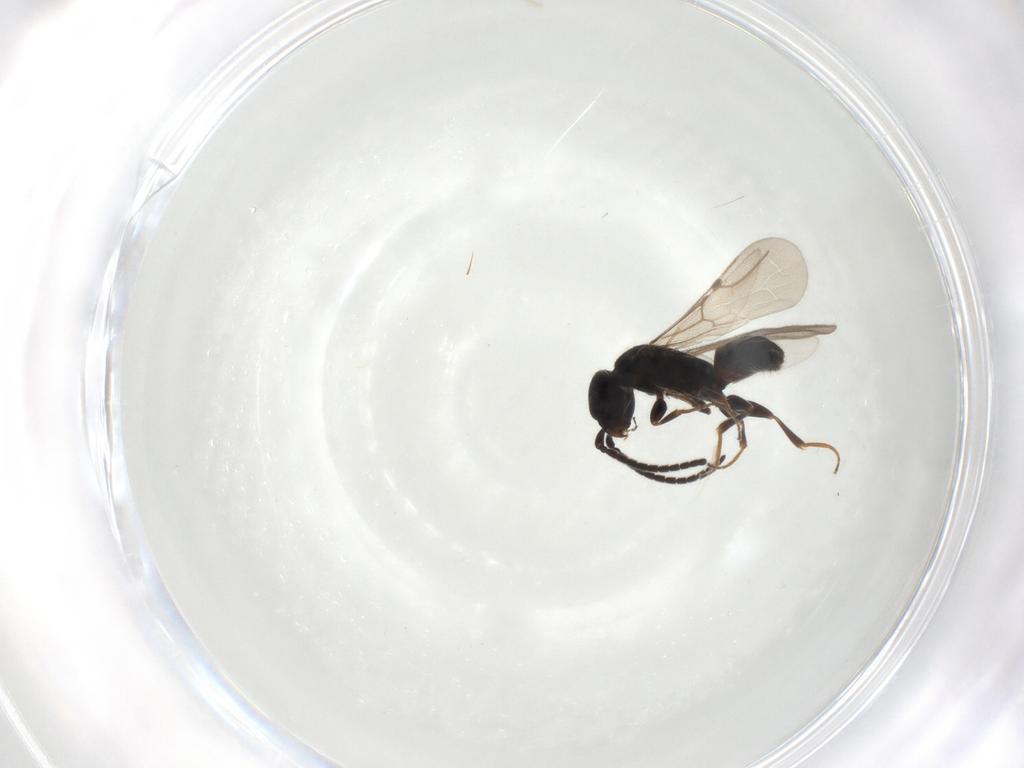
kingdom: Animalia
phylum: Arthropoda
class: Insecta
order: Hymenoptera
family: Bethylidae
